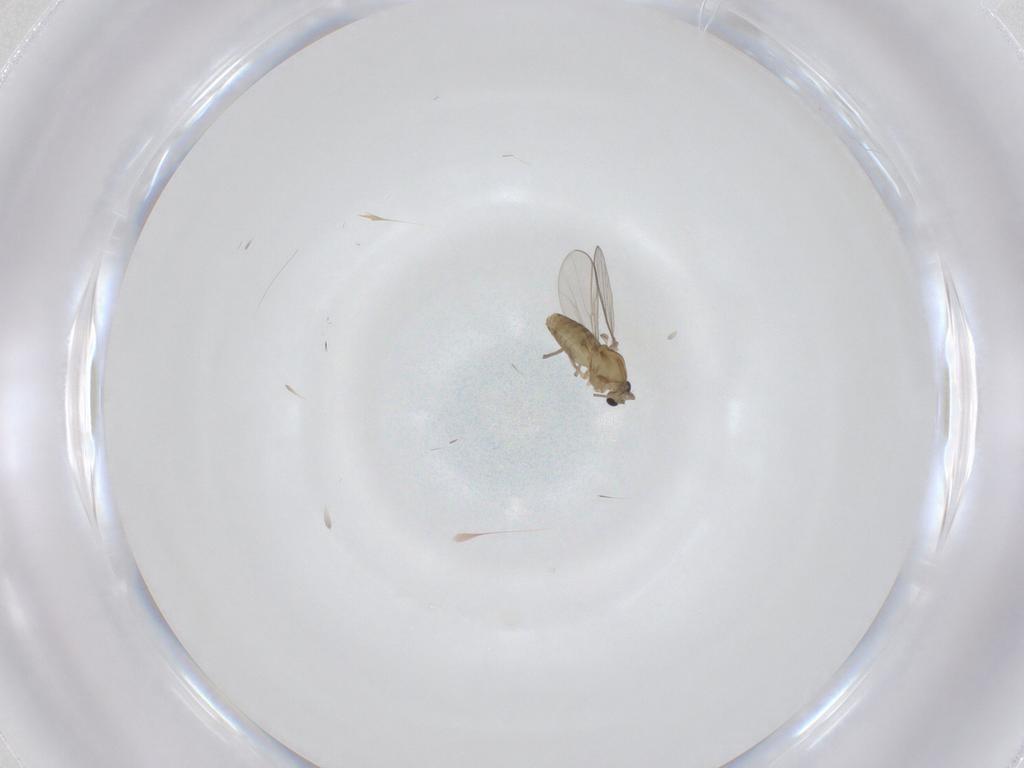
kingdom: Animalia
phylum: Arthropoda
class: Insecta
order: Diptera
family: Chironomidae
